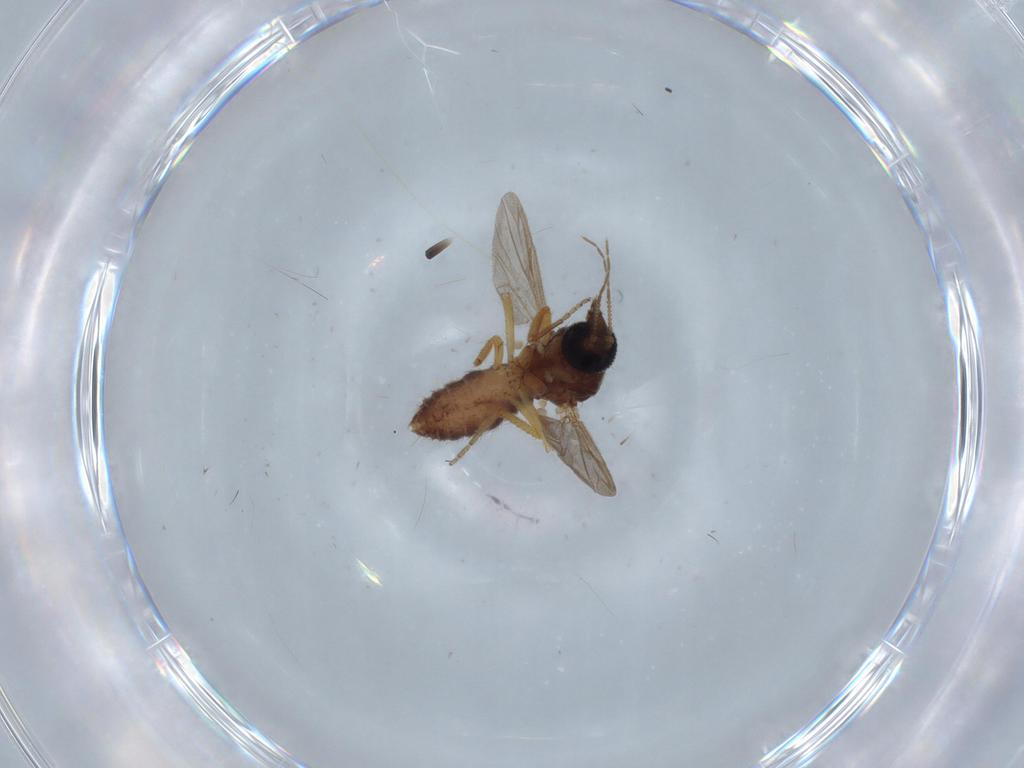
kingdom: Animalia
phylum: Arthropoda
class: Insecta
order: Diptera
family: Ceratopogonidae
